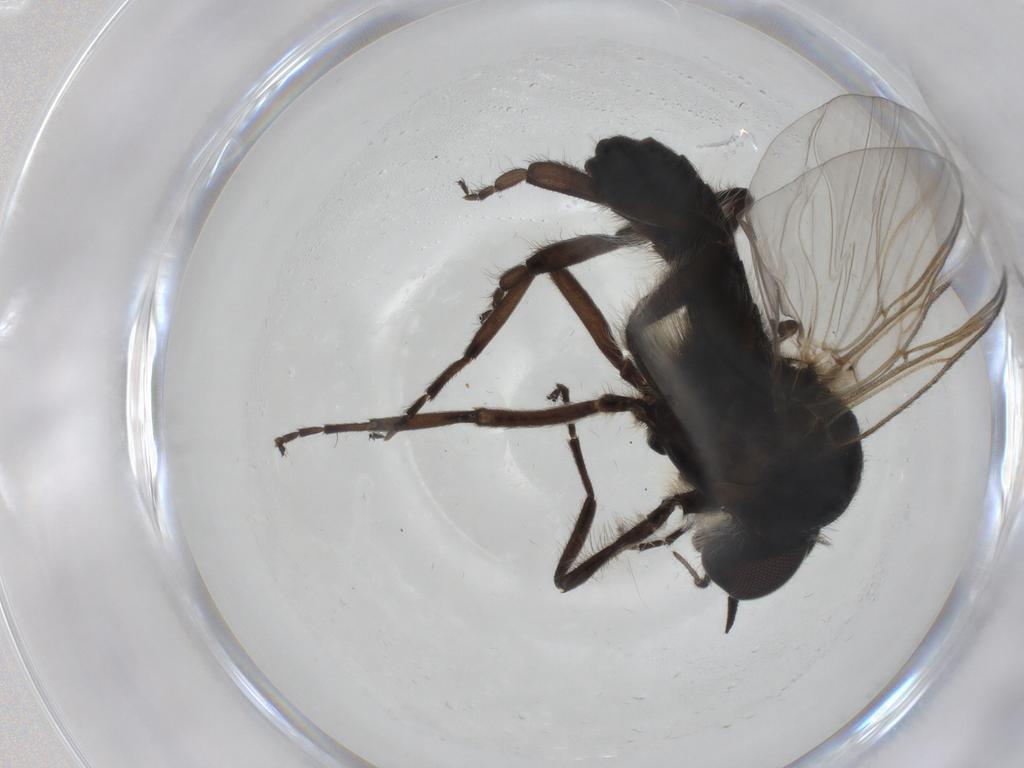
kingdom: Animalia
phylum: Arthropoda
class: Insecta
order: Diptera
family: Simuliidae
